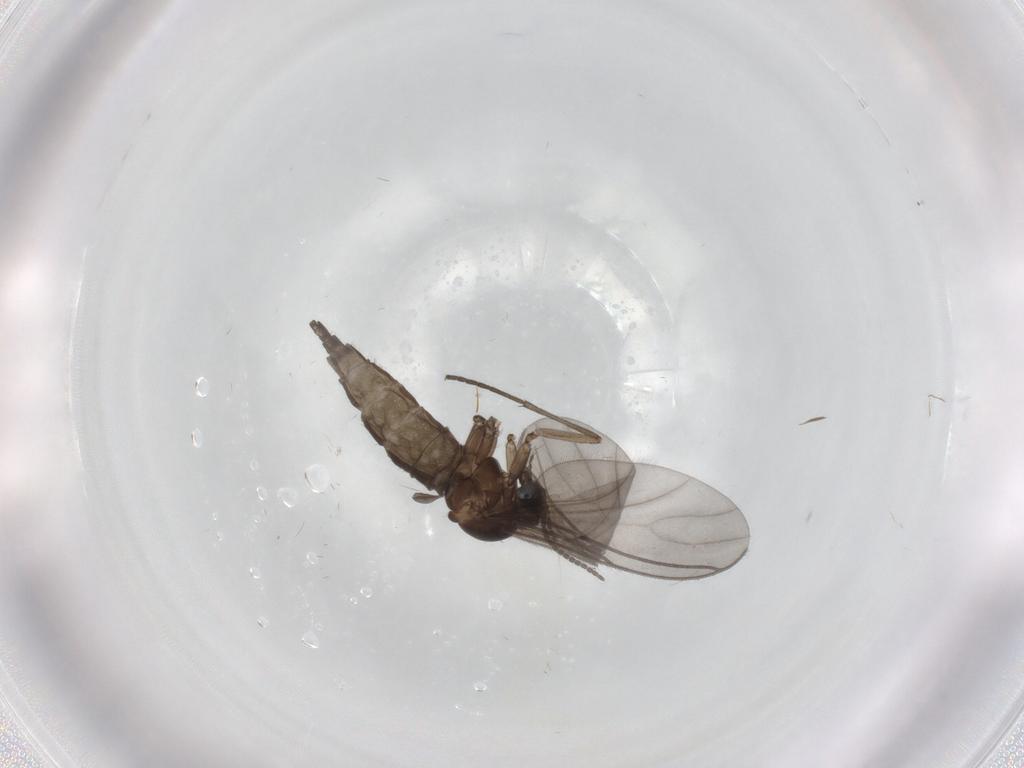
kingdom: Animalia
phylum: Arthropoda
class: Insecta
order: Diptera
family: Sciaridae
